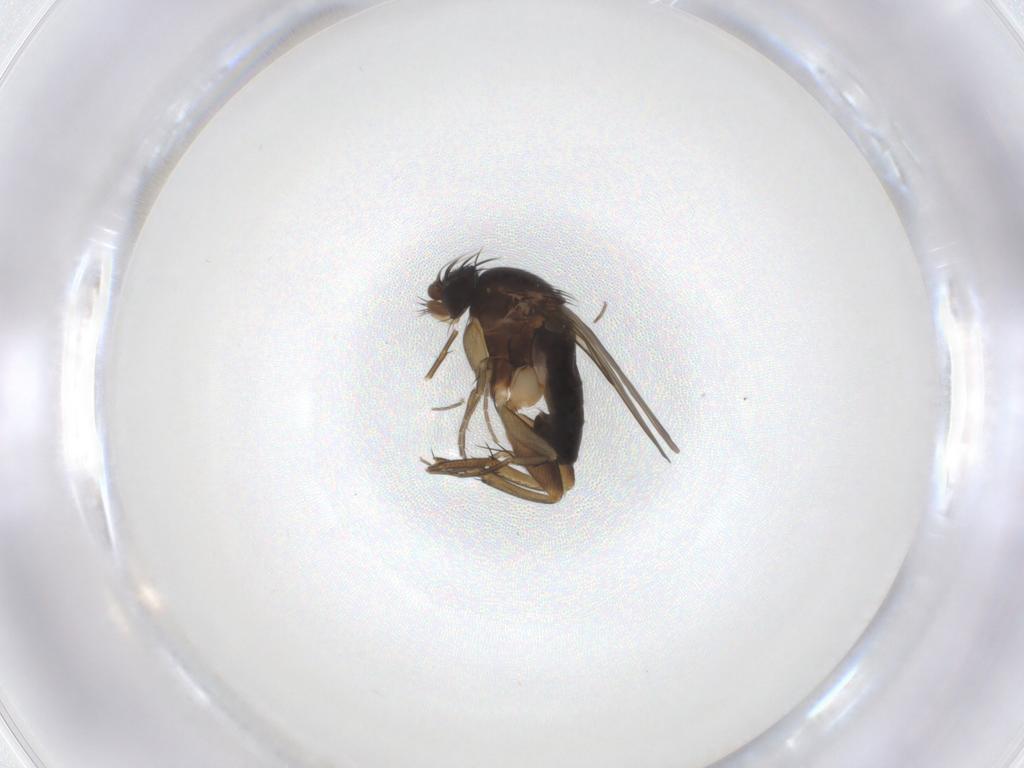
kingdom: Animalia
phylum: Arthropoda
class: Insecta
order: Diptera
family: Phoridae
